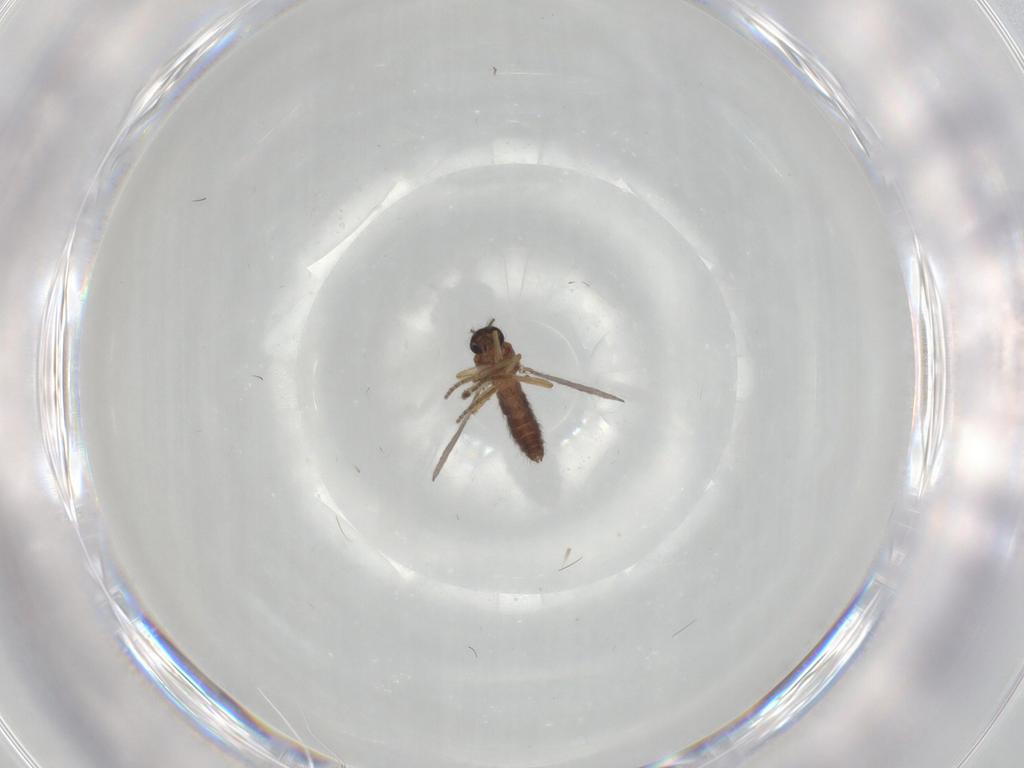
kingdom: Animalia
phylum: Arthropoda
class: Insecta
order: Diptera
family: Ceratopogonidae
